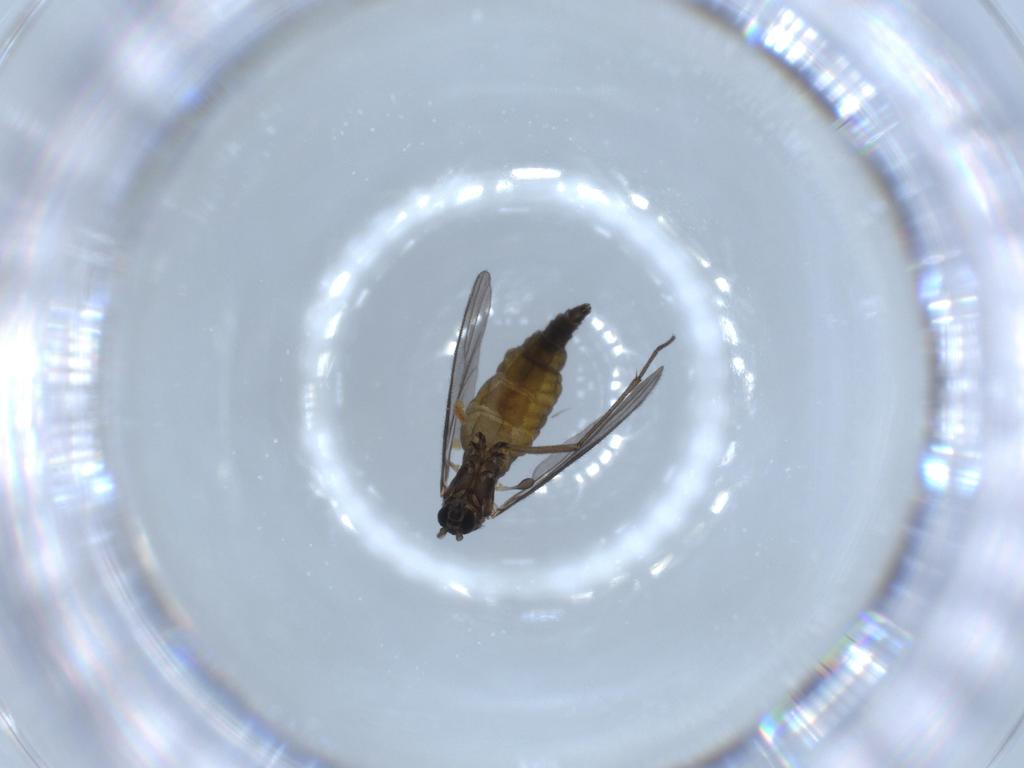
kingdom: Animalia
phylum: Arthropoda
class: Insecta
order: Diptera
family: Sciaridae
